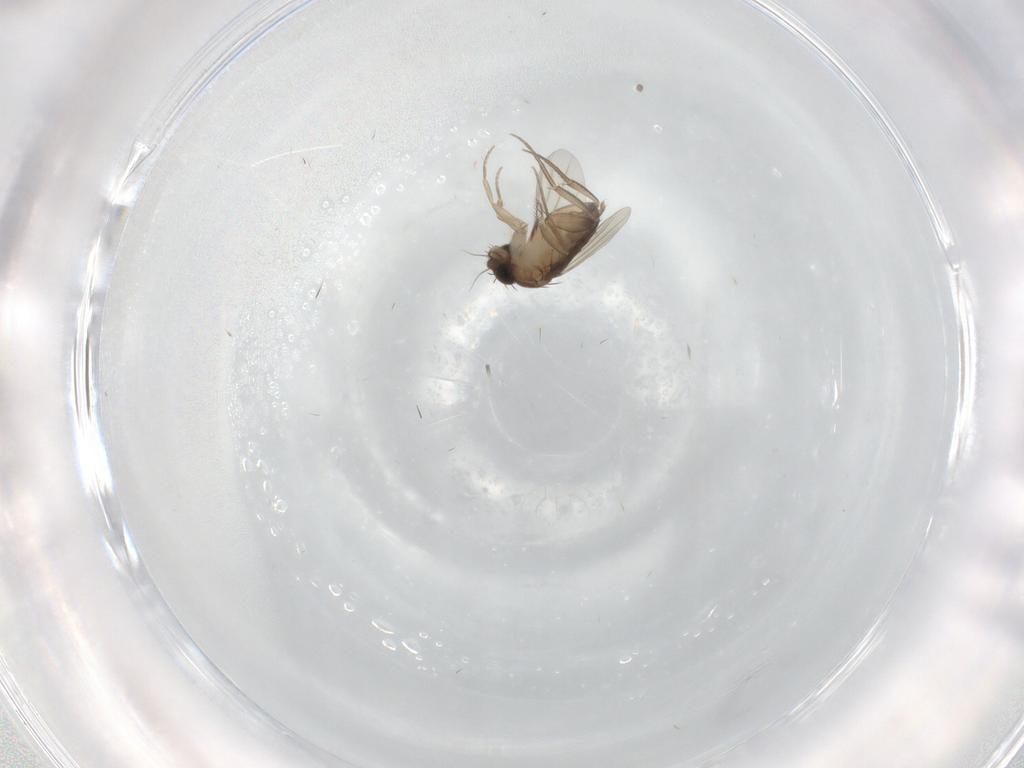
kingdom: Animalia
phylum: Arthropoda
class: Insecta
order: Diptera
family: Phoridae
